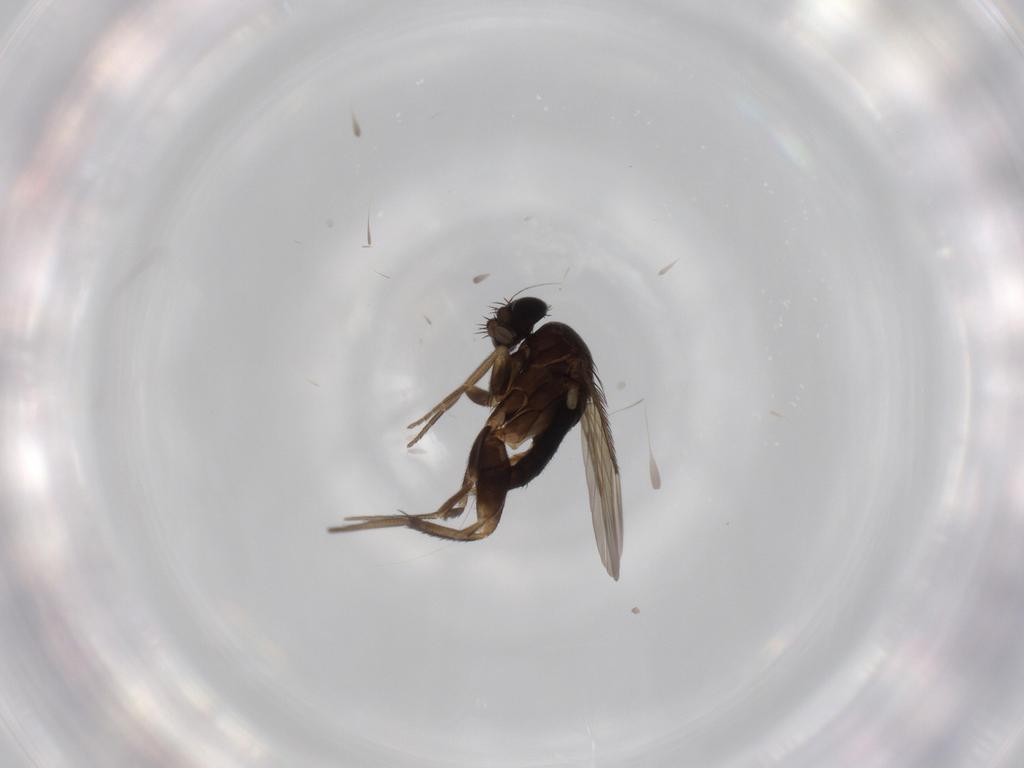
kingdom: Animalia
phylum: Arthropoda
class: Insecta
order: Diptera
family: Phoridae
